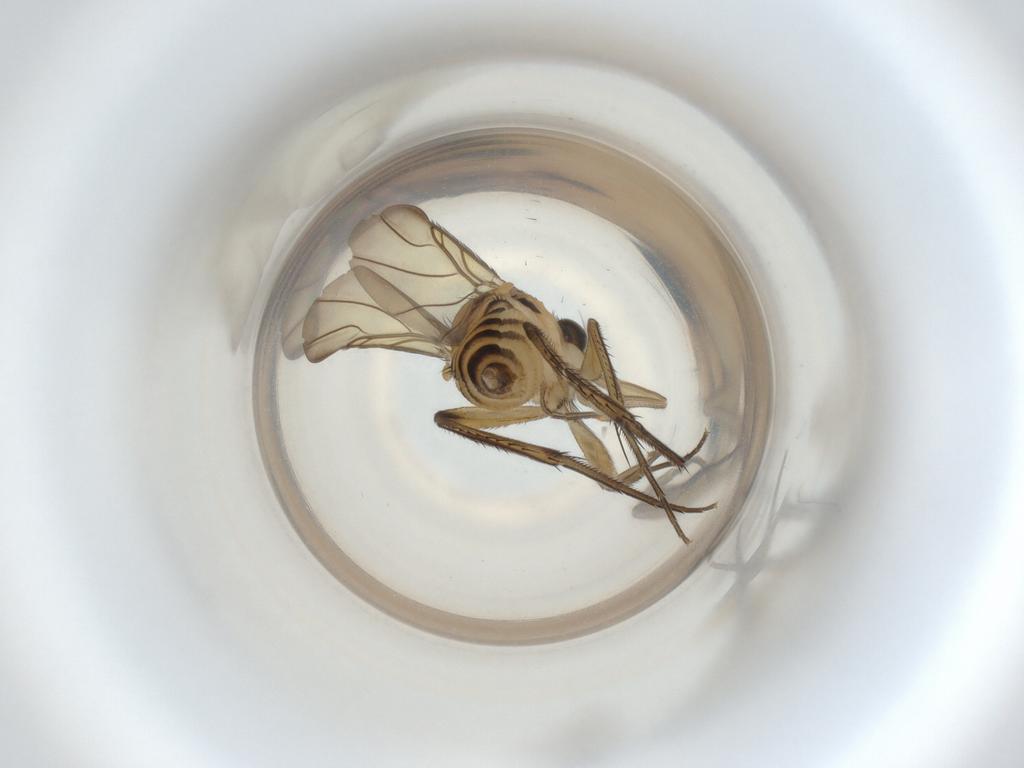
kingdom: Animalia
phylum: Arthropoda
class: Insecta
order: Diptera
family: Phoridae
